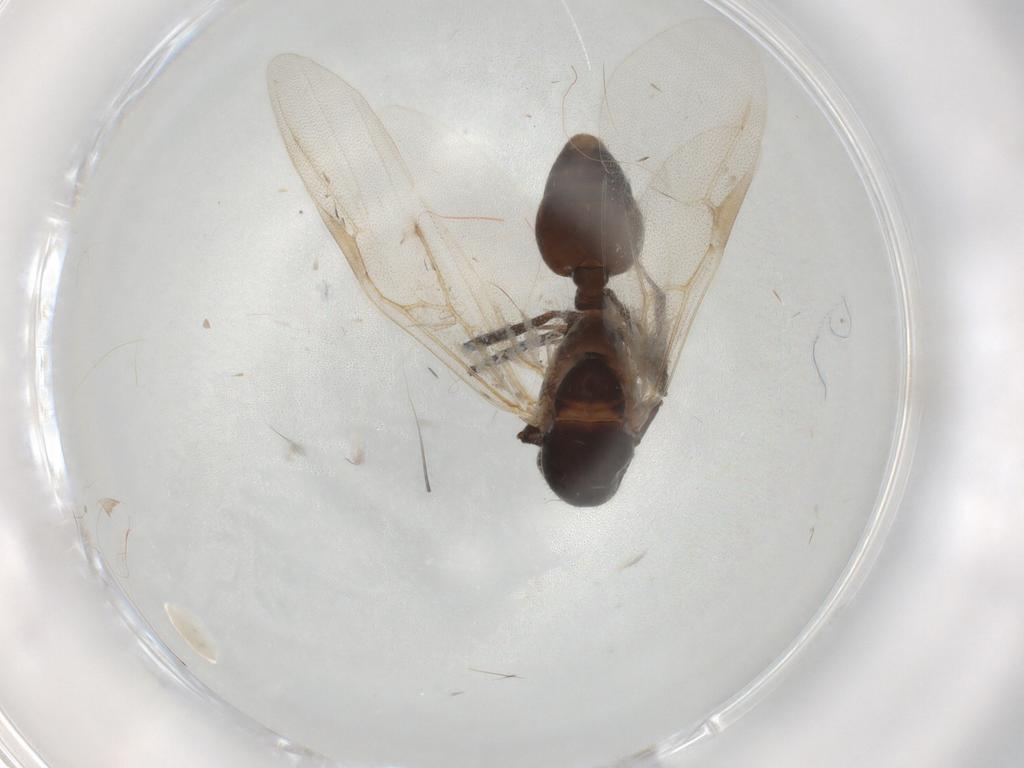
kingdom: Animalia
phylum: Arthropoda
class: Insecta
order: Hymenoptera
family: Formicidae
